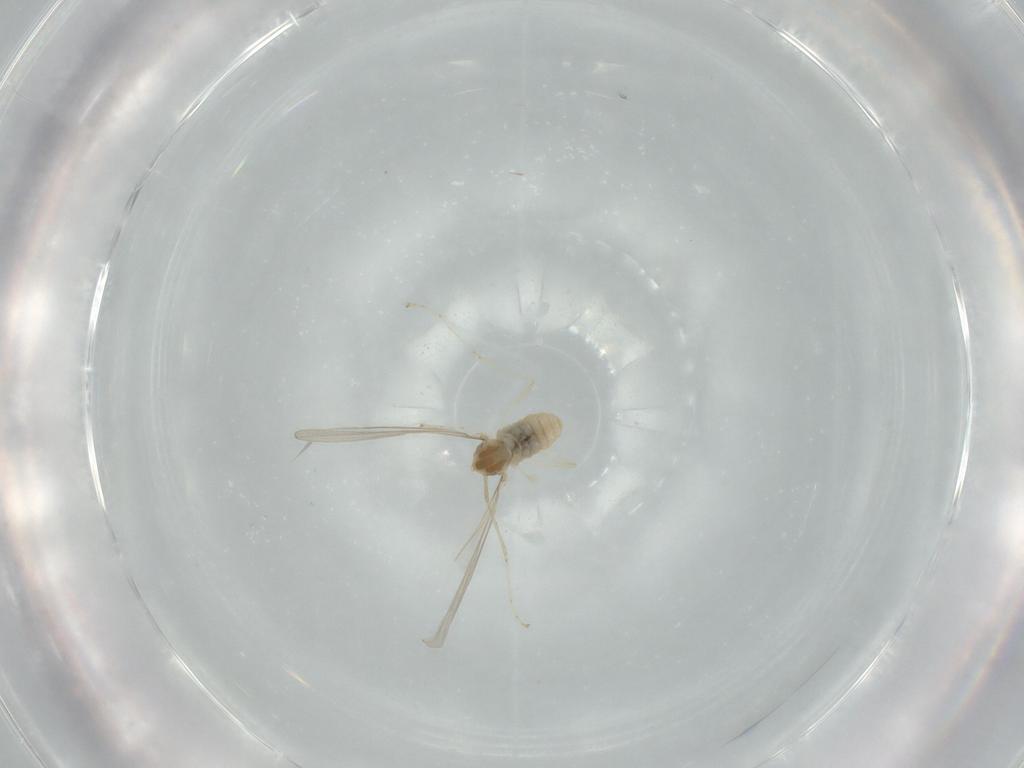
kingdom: Animalia
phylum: Arthropoda
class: Insecta
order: Diptera
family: Cecidomyiidae
